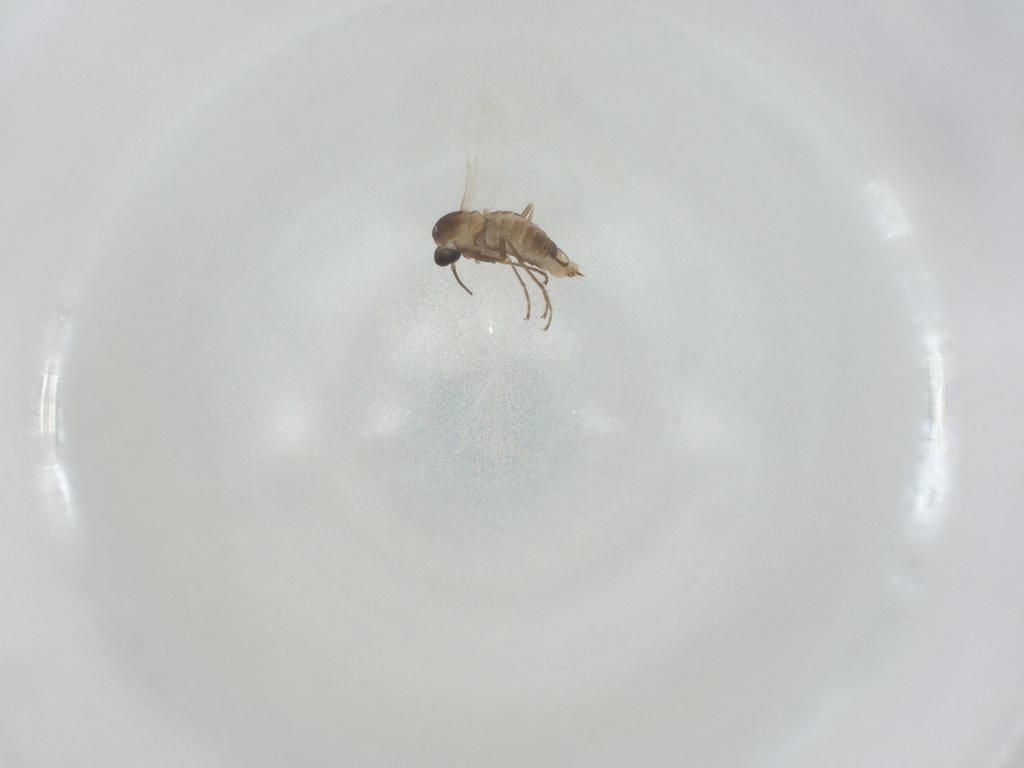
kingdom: Animalia
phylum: Arthropoda
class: Insecta
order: Diptera
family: Cecidomyiidae
